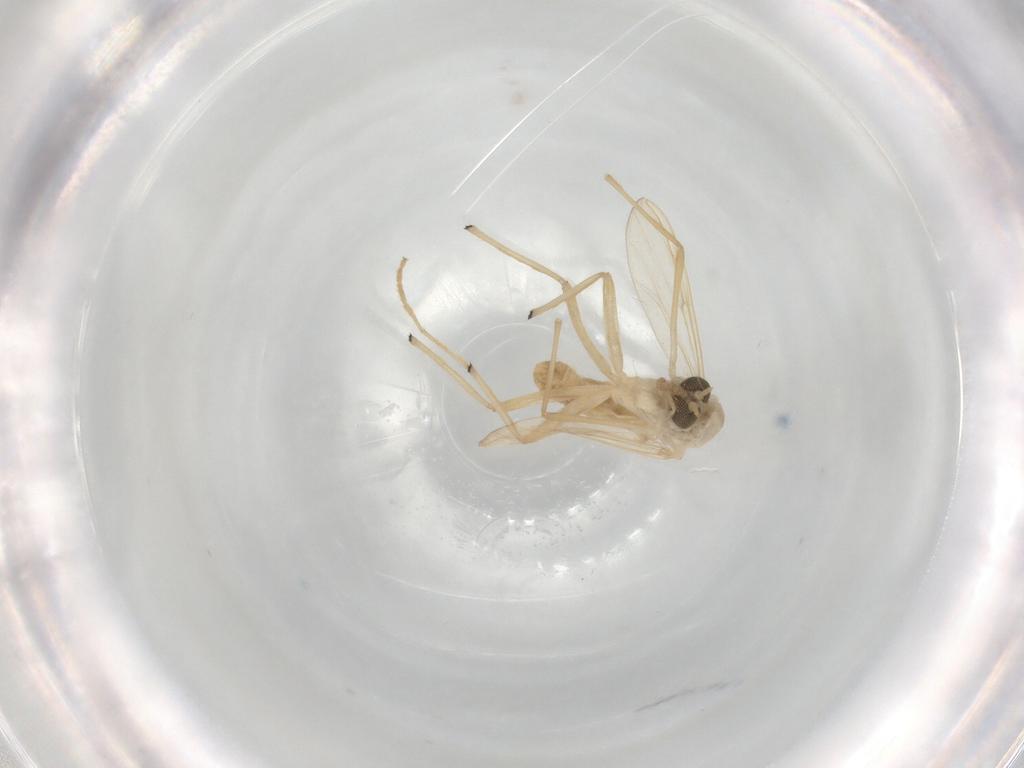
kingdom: Animalia
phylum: Arthropoda
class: Insecta
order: Diptera
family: Chironomidae
